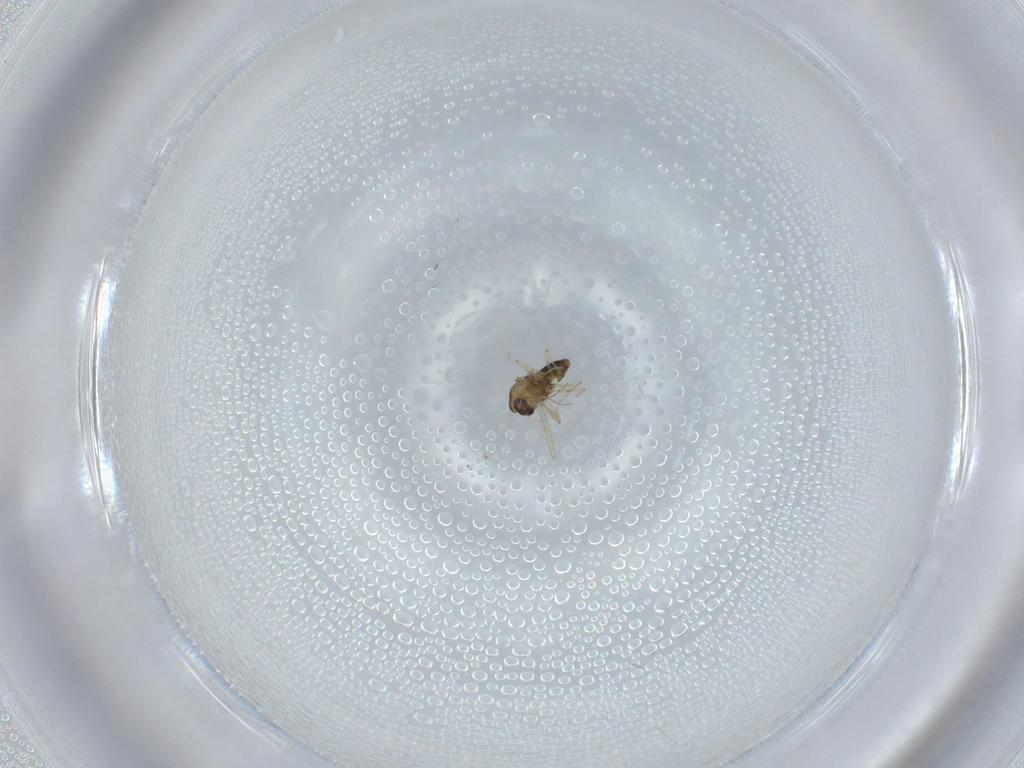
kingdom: Animalia
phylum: Arthropoda
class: Insecta
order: Diptera
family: Chironomidae
